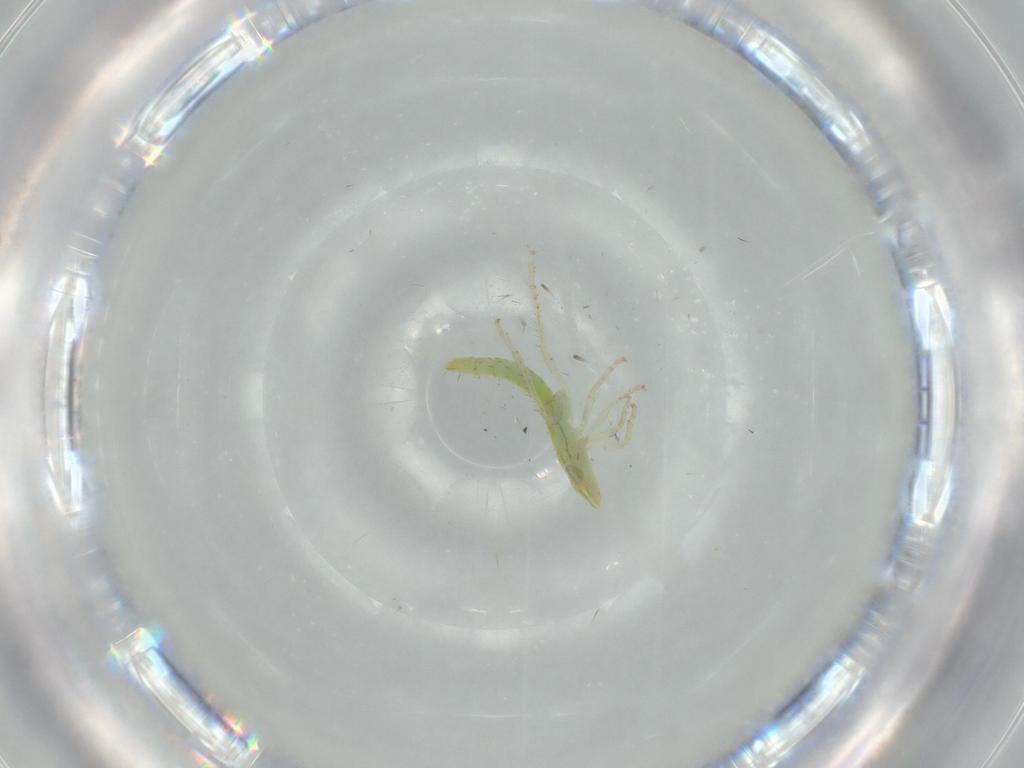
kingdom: Animalia
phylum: Arthropoda
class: Insecta
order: Hemiptera
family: Cicadellidae
